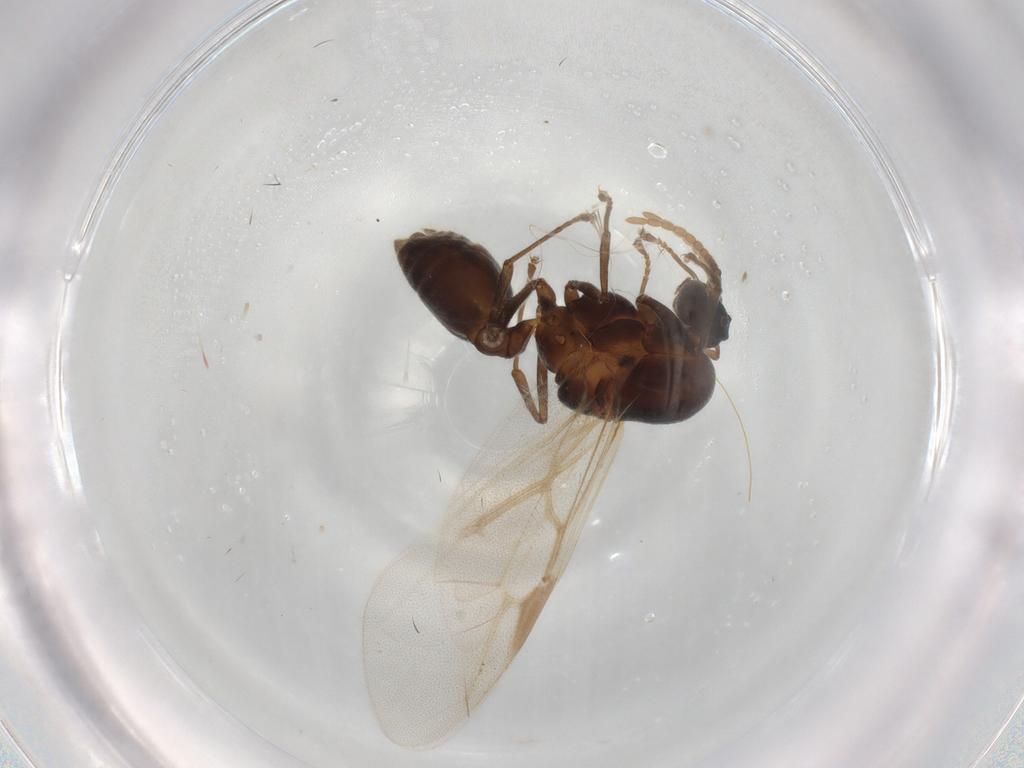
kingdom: Animalia
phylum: Arthropoda
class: Insecta
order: Hymenoptera
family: Formicidae
